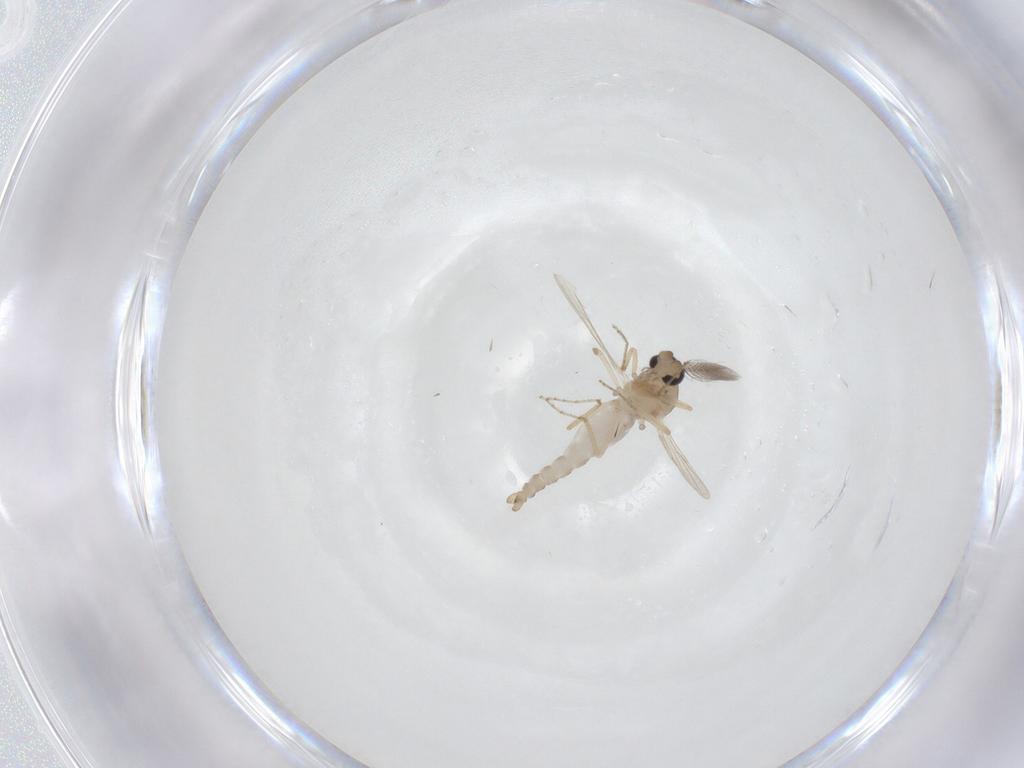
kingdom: Animalia
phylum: Arthropoda
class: Insecta
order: Diptera
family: Ceratopogonidae
